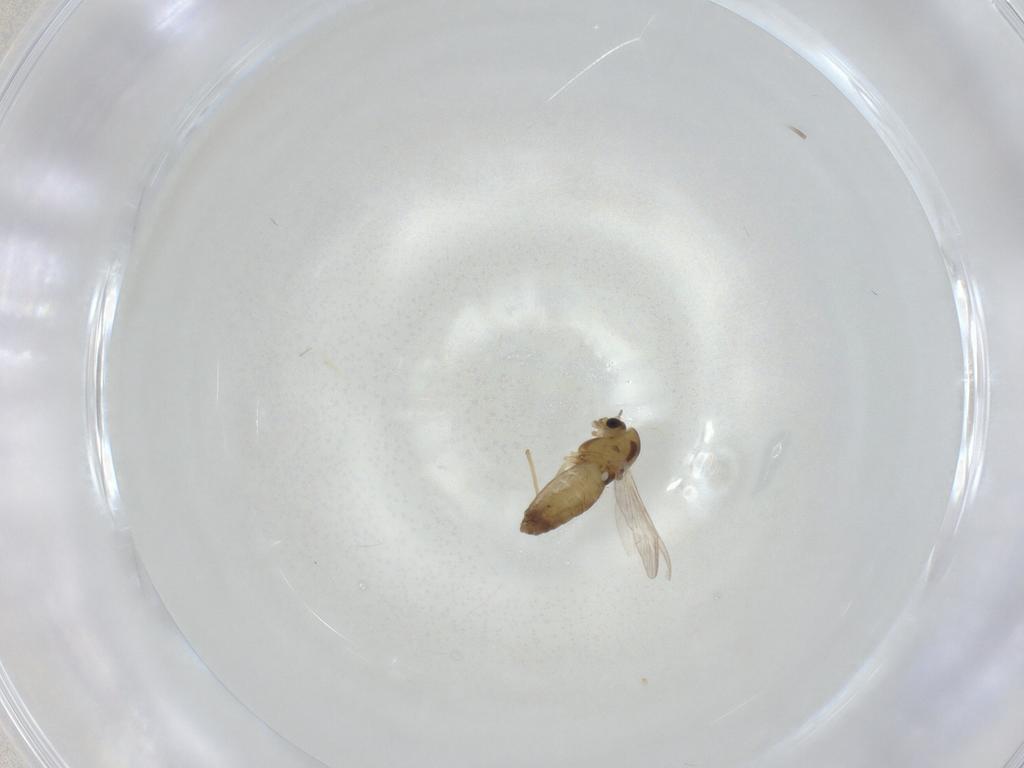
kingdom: Animalia
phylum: Arthropoda
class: Insecta
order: Diptera
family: Chironomidae
